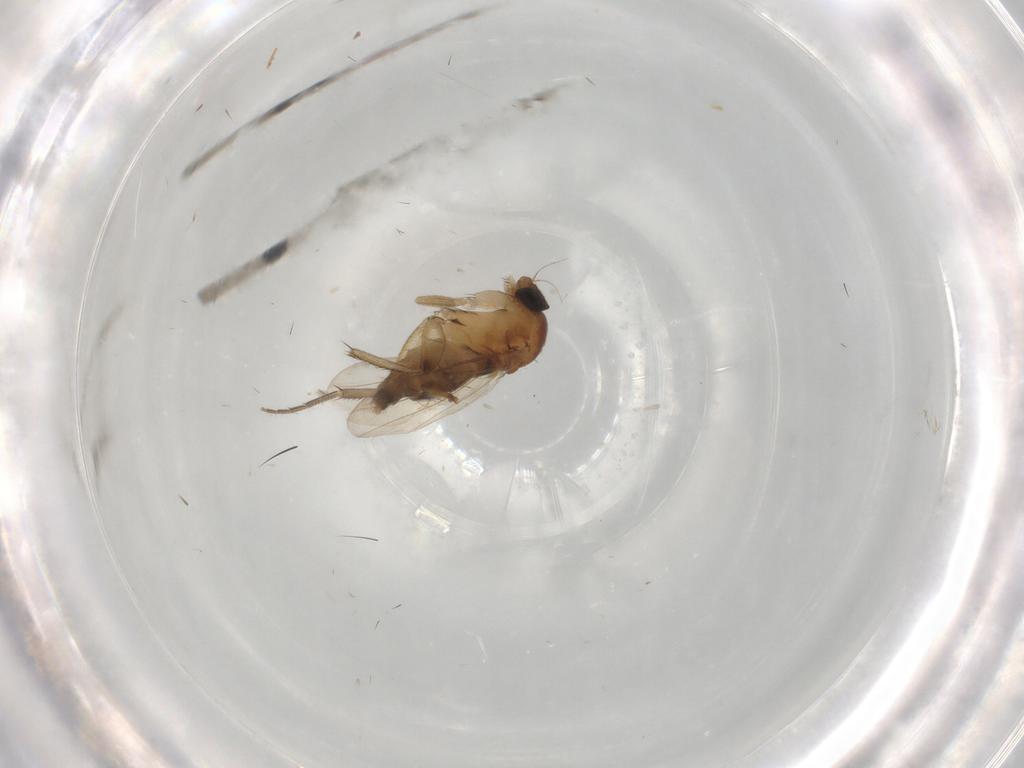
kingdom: Animalia
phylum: Arthropoda
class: Insecta
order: Diptera
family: Phoridae
